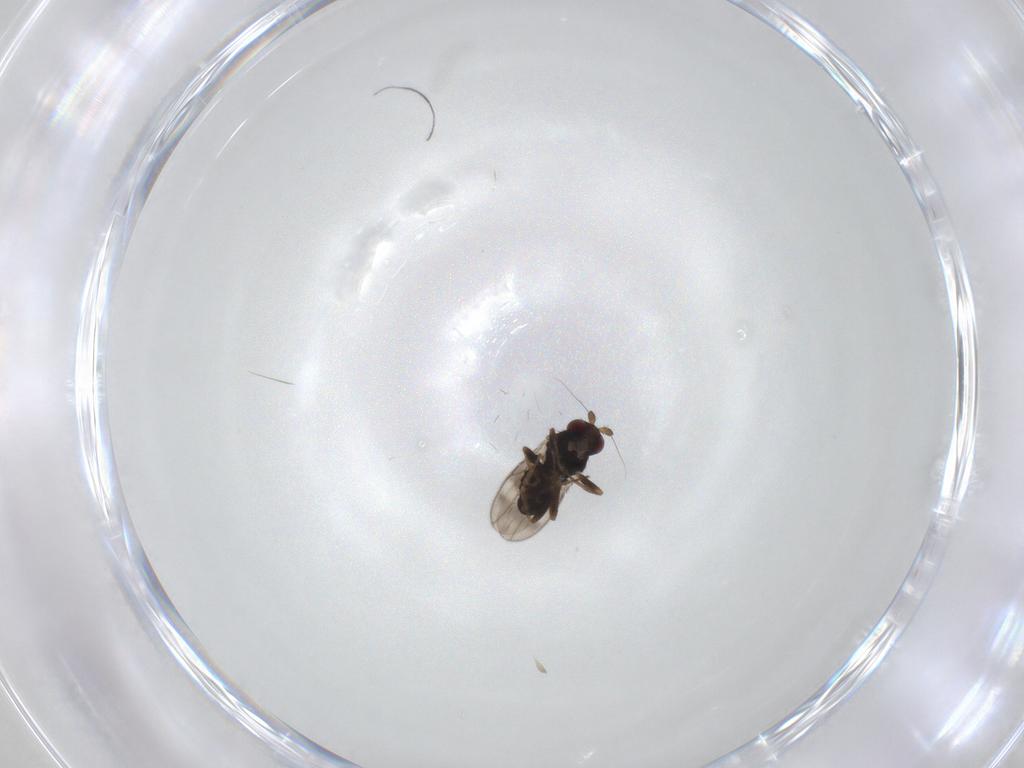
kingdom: Animalia
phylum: Arthropoda
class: Insecta
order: Diptera
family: Sphaeroceridae
